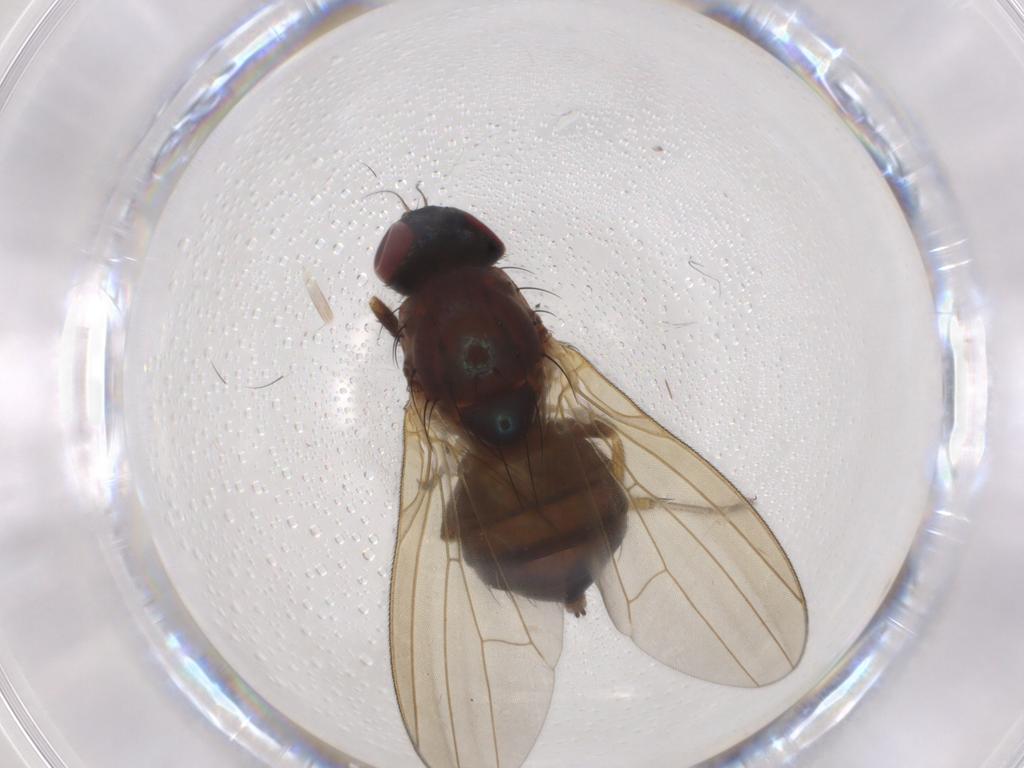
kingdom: Animalia
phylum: Arthropoda
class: Insecta
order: Diptera
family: Lauxaniidae
